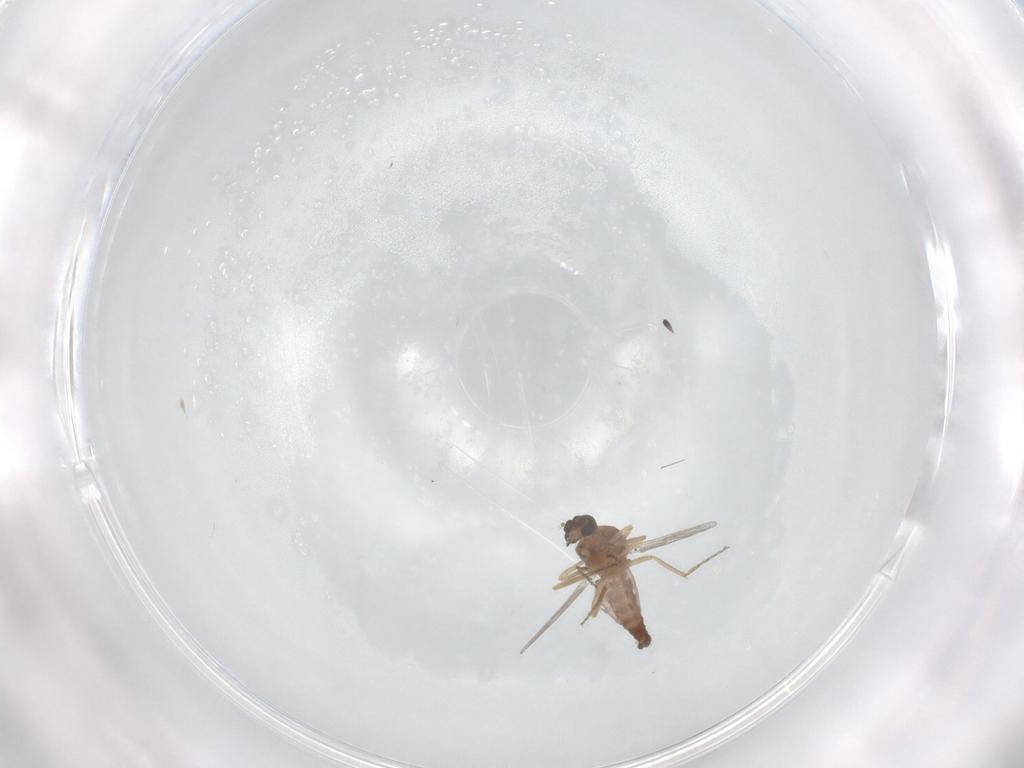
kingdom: Animalia
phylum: Arthropoda
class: Insecta
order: Diptera
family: Ceratopogonidae
